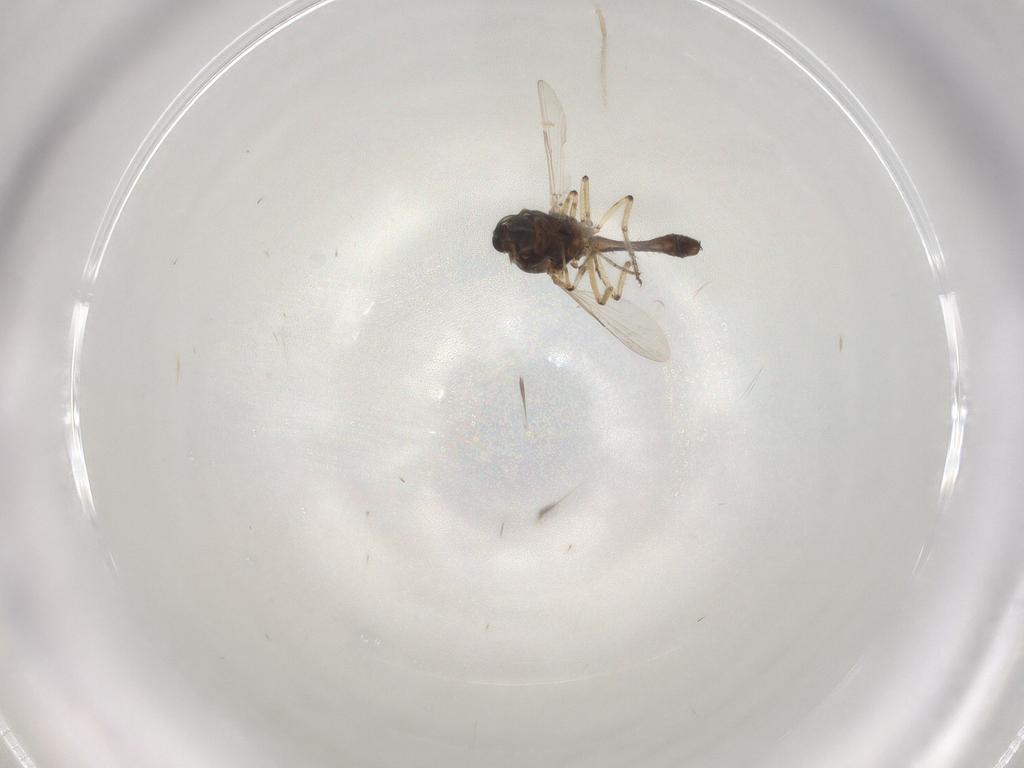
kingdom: Animalia
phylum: Arthropoda
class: Insecta
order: Diptera
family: Ceratopogonidae
